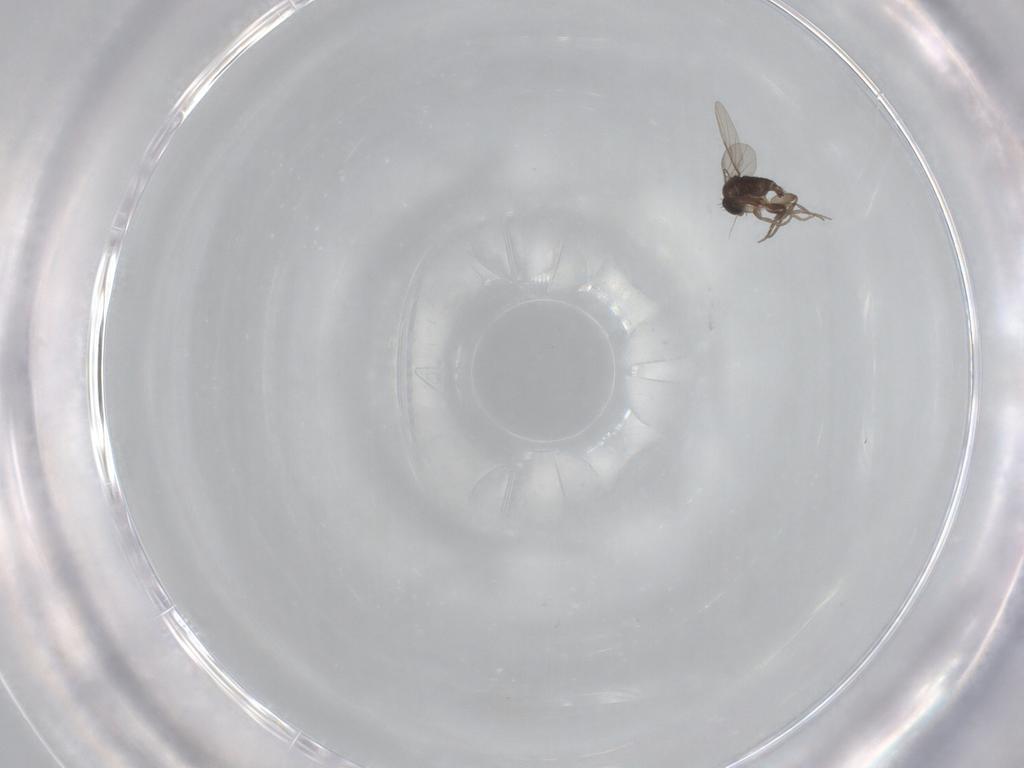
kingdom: Animalia
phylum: Arthropoda
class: Insecta
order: Diptera
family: Phoridae
